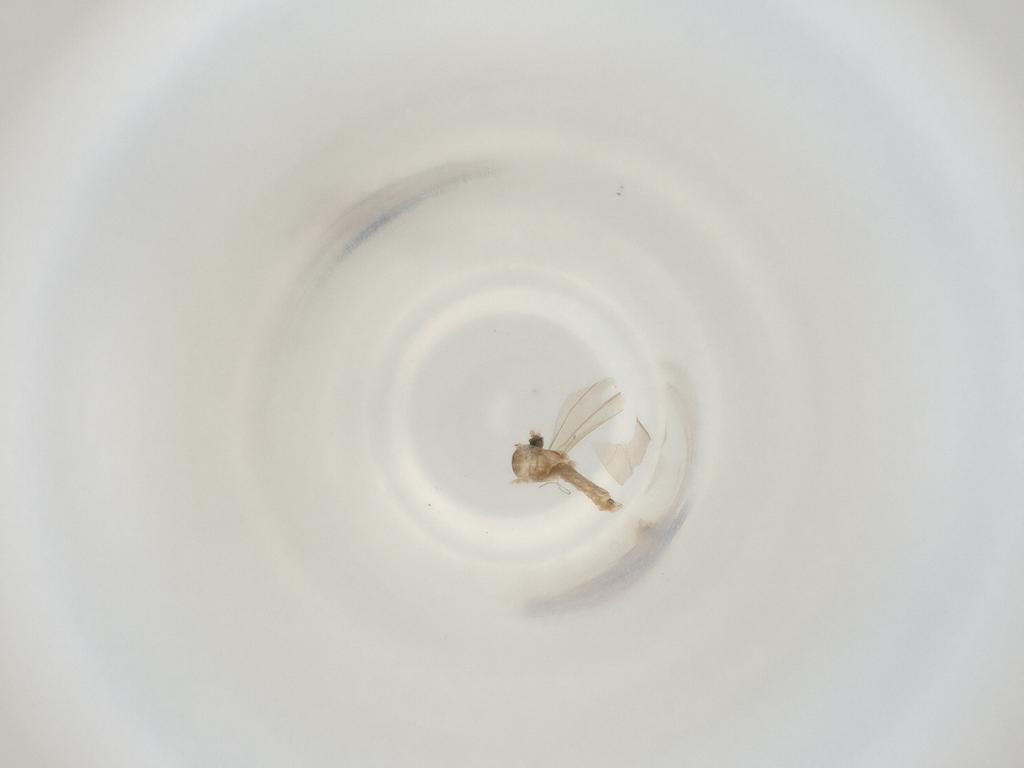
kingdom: Animalia
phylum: Arthropoda
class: Insecta
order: Diptera
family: Cecidomyiidae
